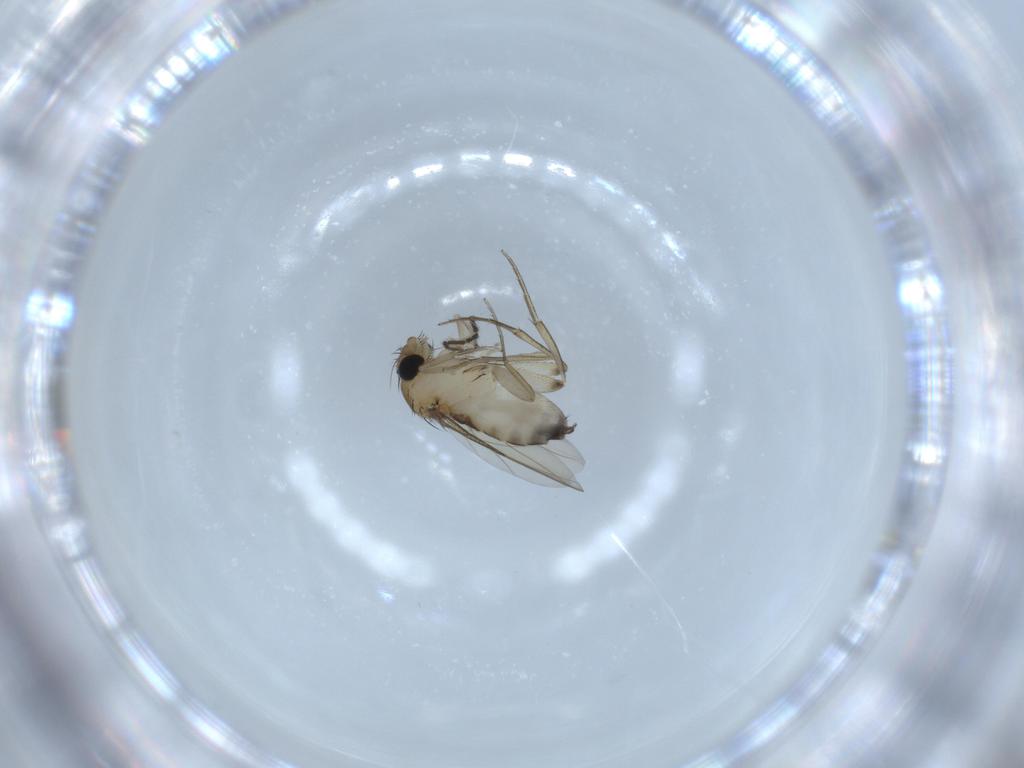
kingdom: Animalia
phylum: Arthropoda
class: Insecta
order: Diptera
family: Phoridae
